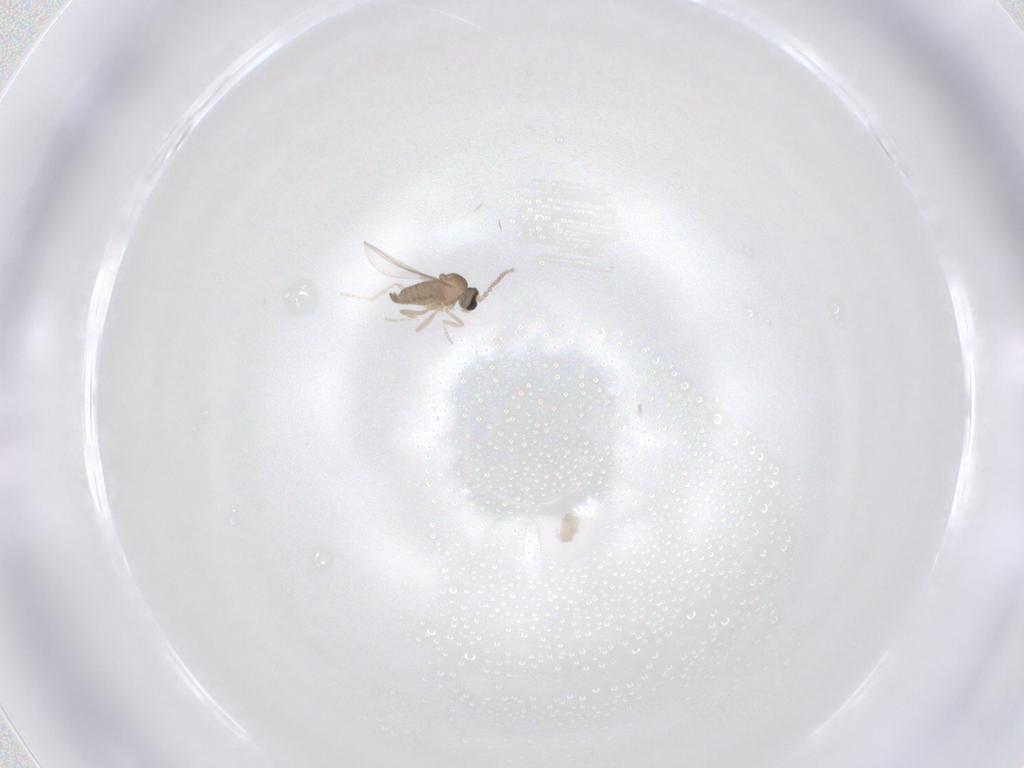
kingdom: Animalia
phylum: Arthropoda
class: Insecta
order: Diptera
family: Cecidomyiidae
